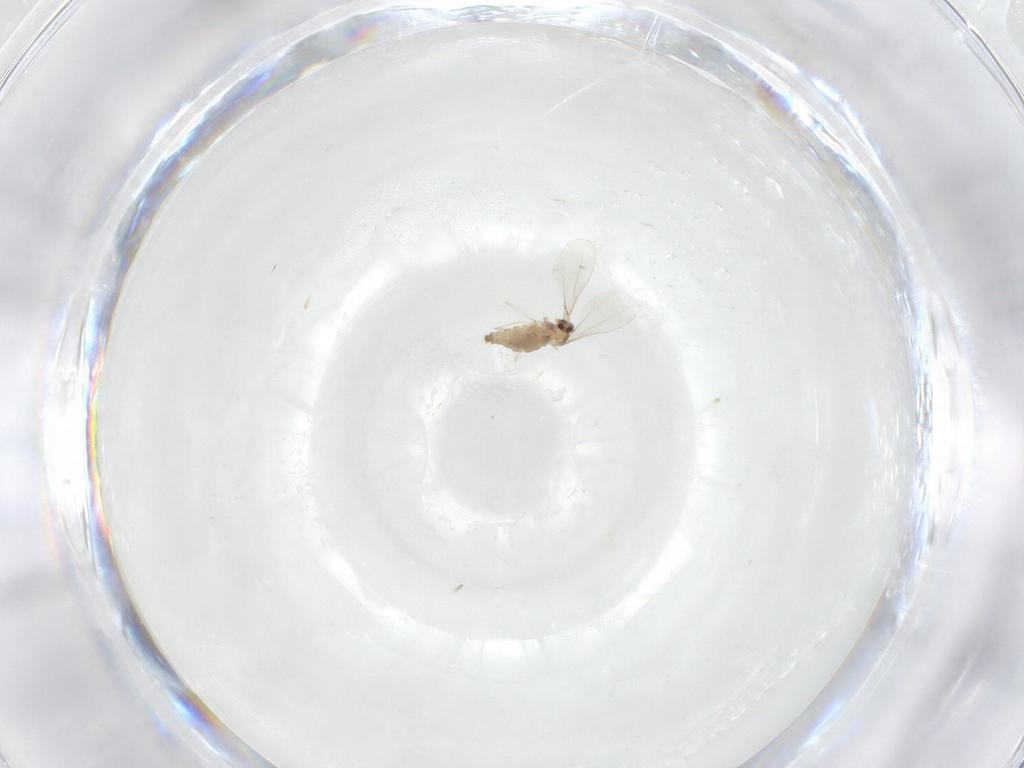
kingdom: Animalia
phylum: Arthropoda
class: Insecta
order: Diptera
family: Cecidomyiidae
